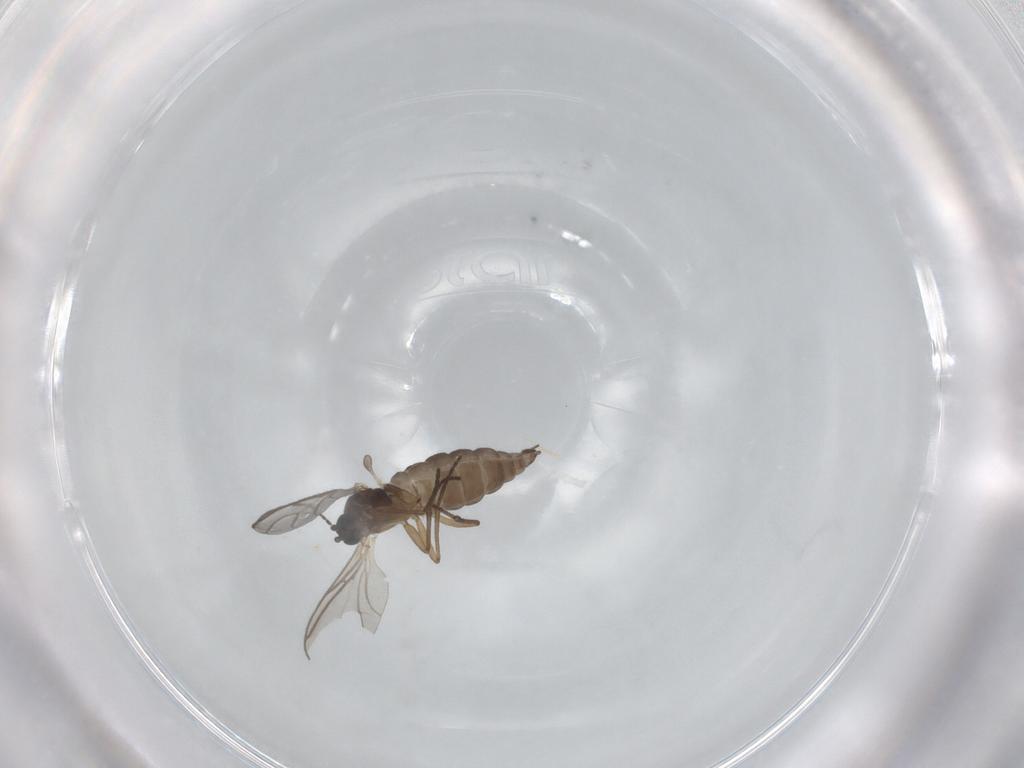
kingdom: Animalia
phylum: Arthropoda
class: Insecta
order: Diptera
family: Sciaridae
